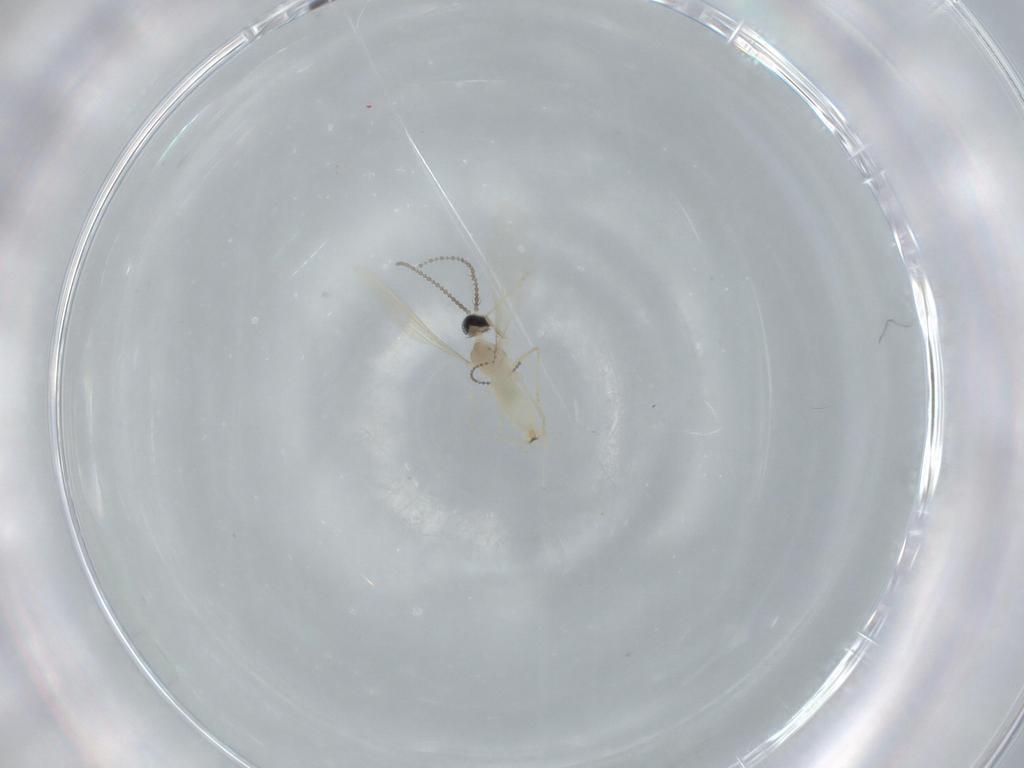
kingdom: Animalia
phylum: Arthropoda
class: Insecta
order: Diptera
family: Cecidomyiidae
